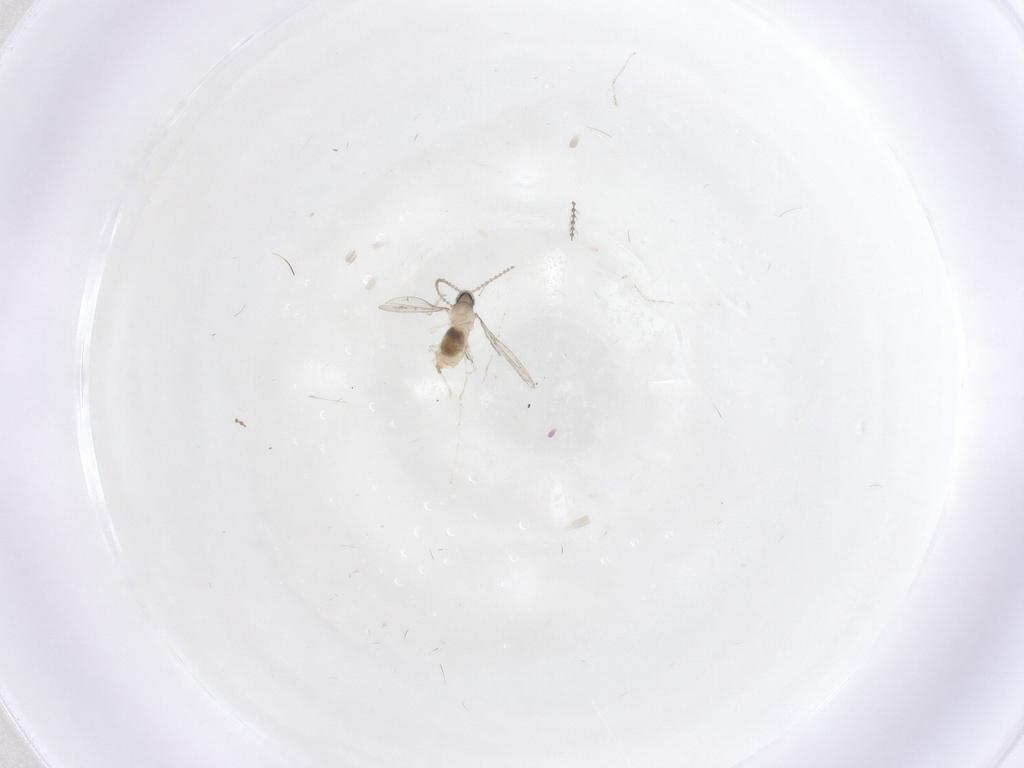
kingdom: Animalia
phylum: Arthropoda
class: Insecta
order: Diptera
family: Cecidomyiidae
